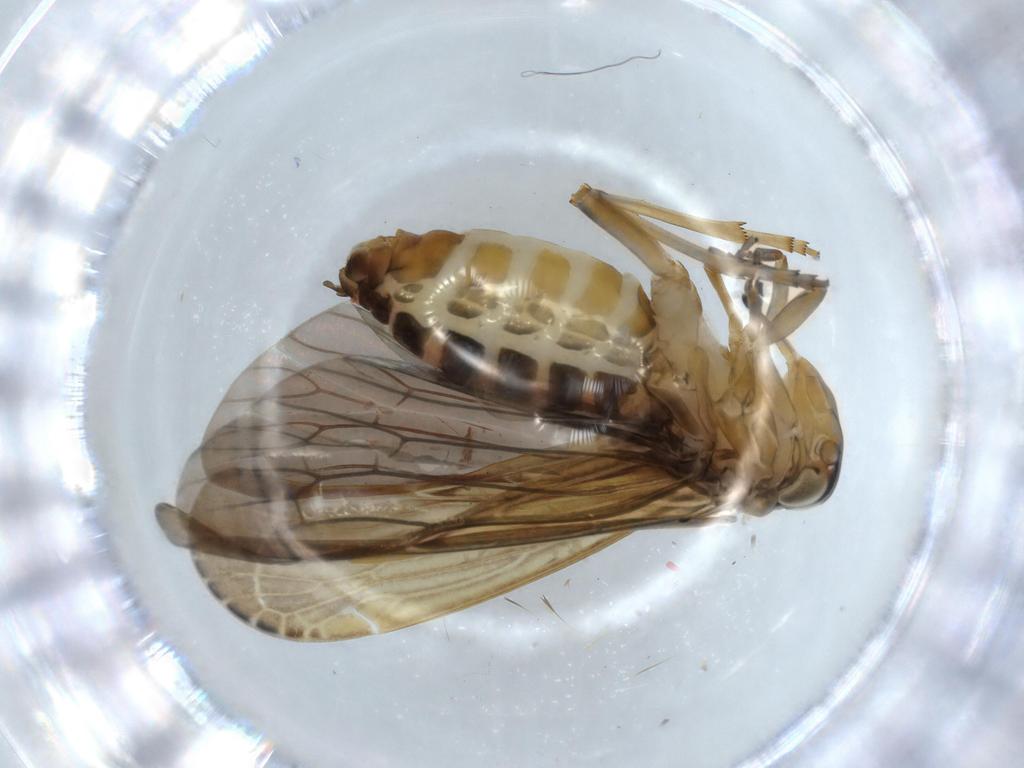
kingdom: Animalia
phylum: Arthropoda
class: Insecta
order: Hemiptera
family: Achilidae
